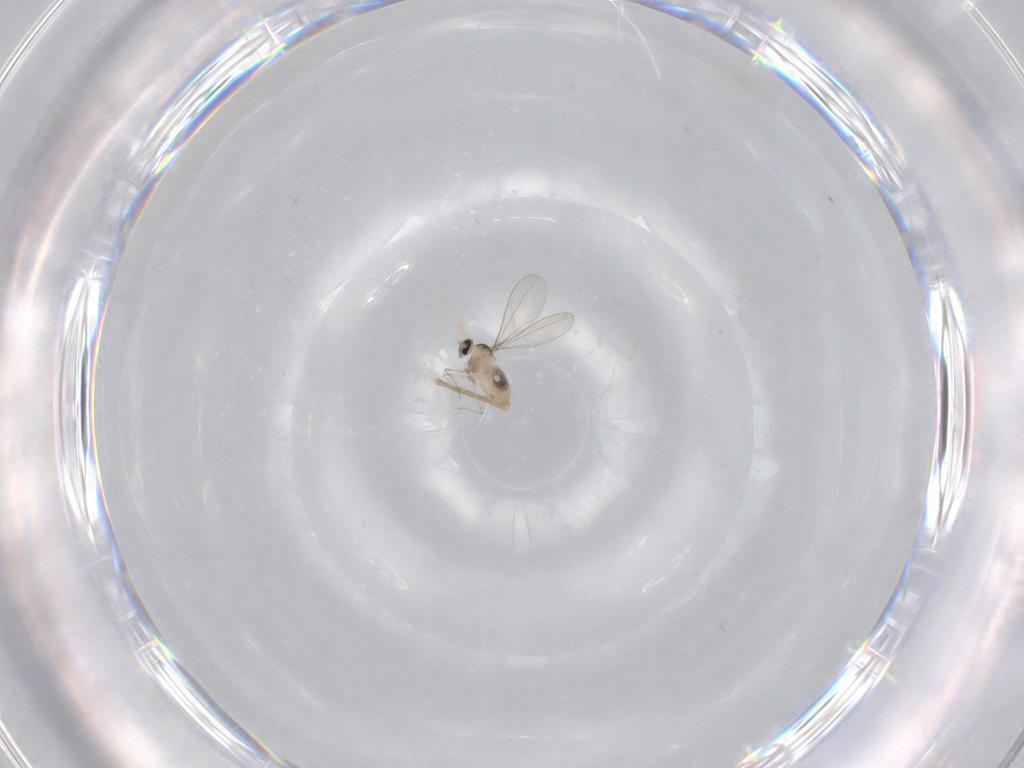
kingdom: Animalia
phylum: Arthropoda
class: Insecta
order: Diptera
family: Cecidomyiidae
